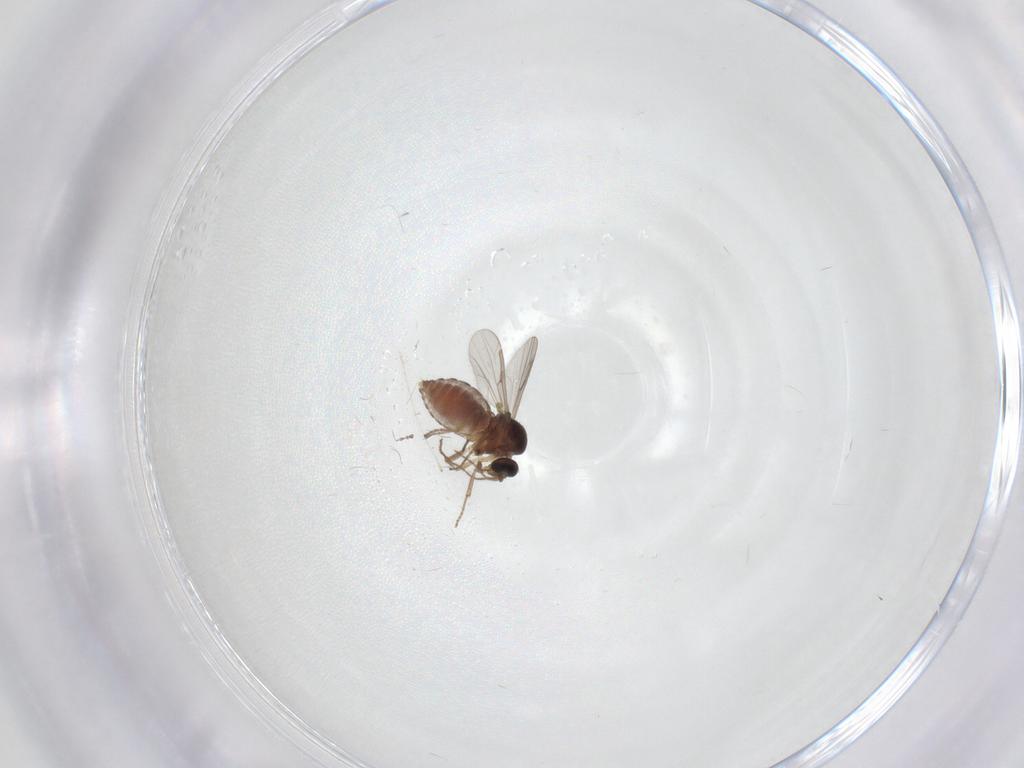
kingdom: Animalia
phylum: Arthropoda
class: Insecta
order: Diptera
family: Ceratopogonidae
